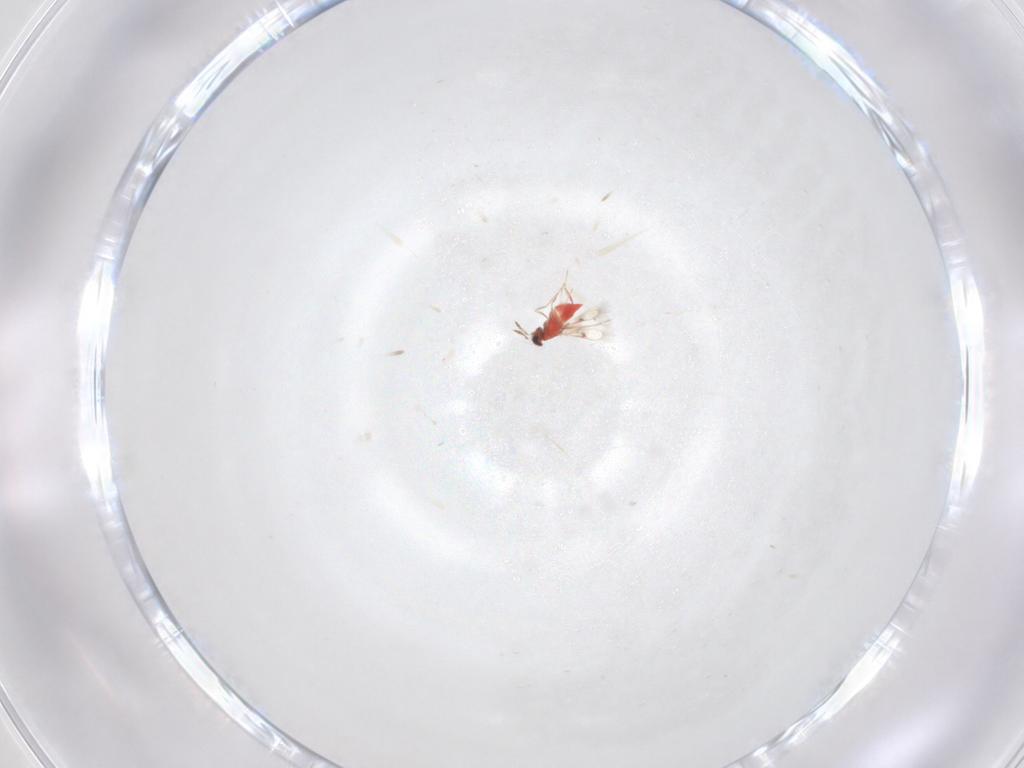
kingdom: Animalia
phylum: Arthropoda
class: Insecta
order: Hymenoptera
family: Trichogrammatidae
